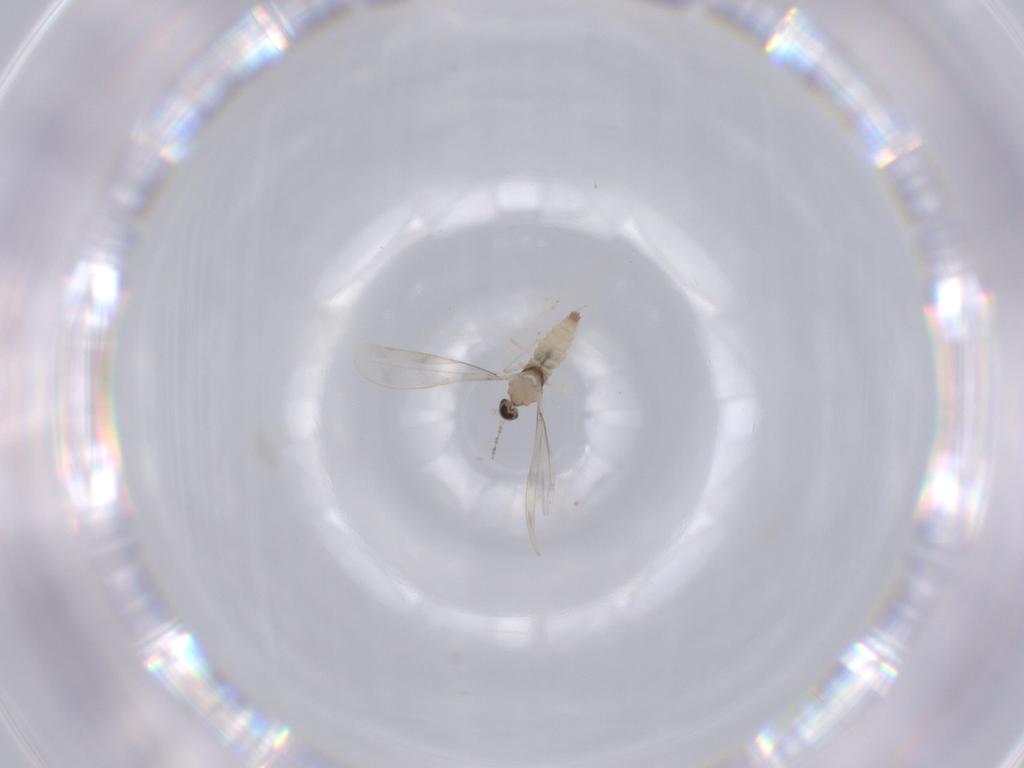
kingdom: Animalia
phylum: Arthropoda
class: Insecta
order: Diptera
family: Cecidomyiidae
